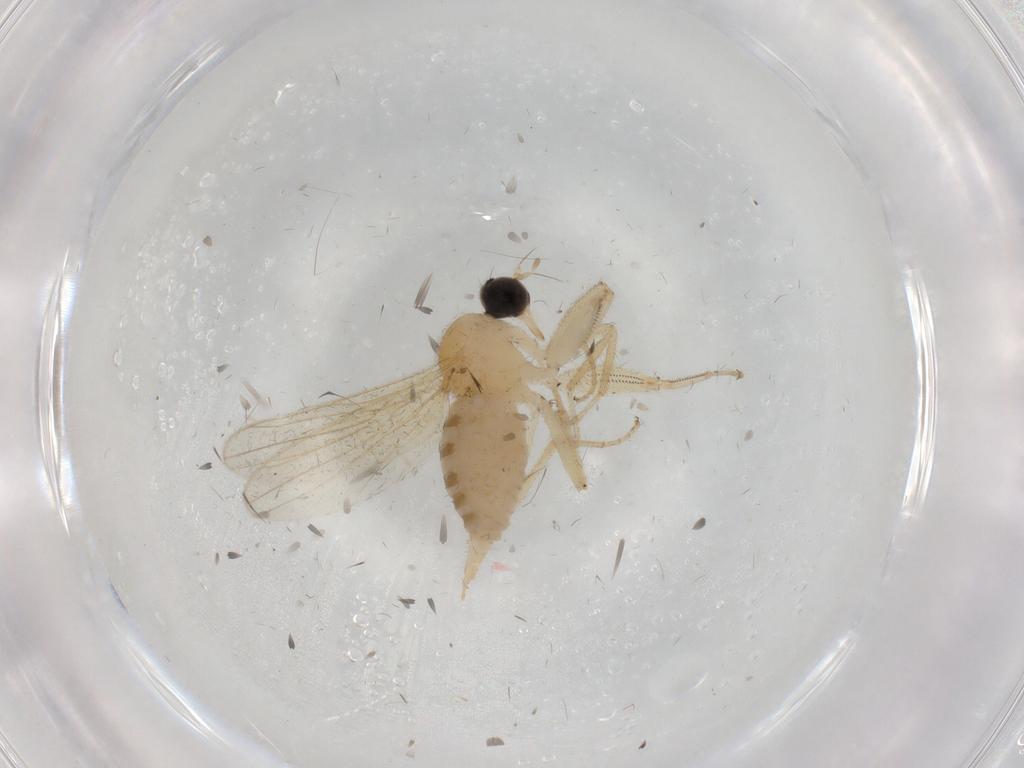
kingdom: Animalia
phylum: Arthropoda
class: Insecta
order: Diptera
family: Hybotidae
